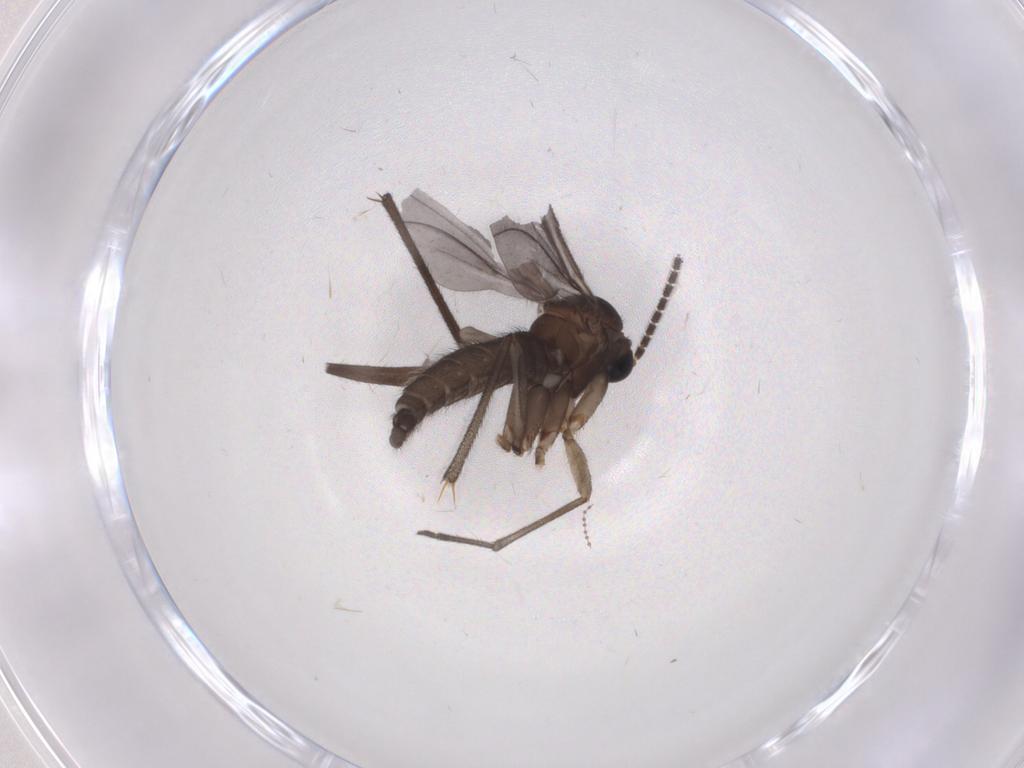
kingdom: Animalia
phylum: Arthropoda
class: Insecta
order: Diptera
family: Sciaridae
